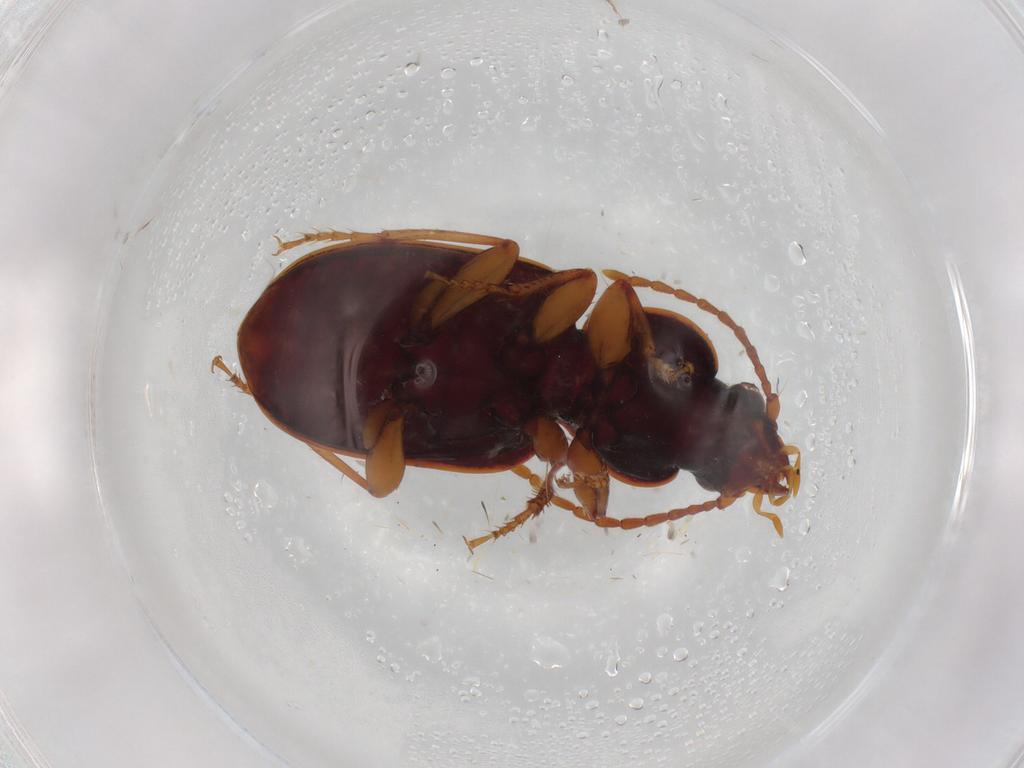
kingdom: Animalia
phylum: Arthropoda
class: Insecta
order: Coleoptera
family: Carabidae
